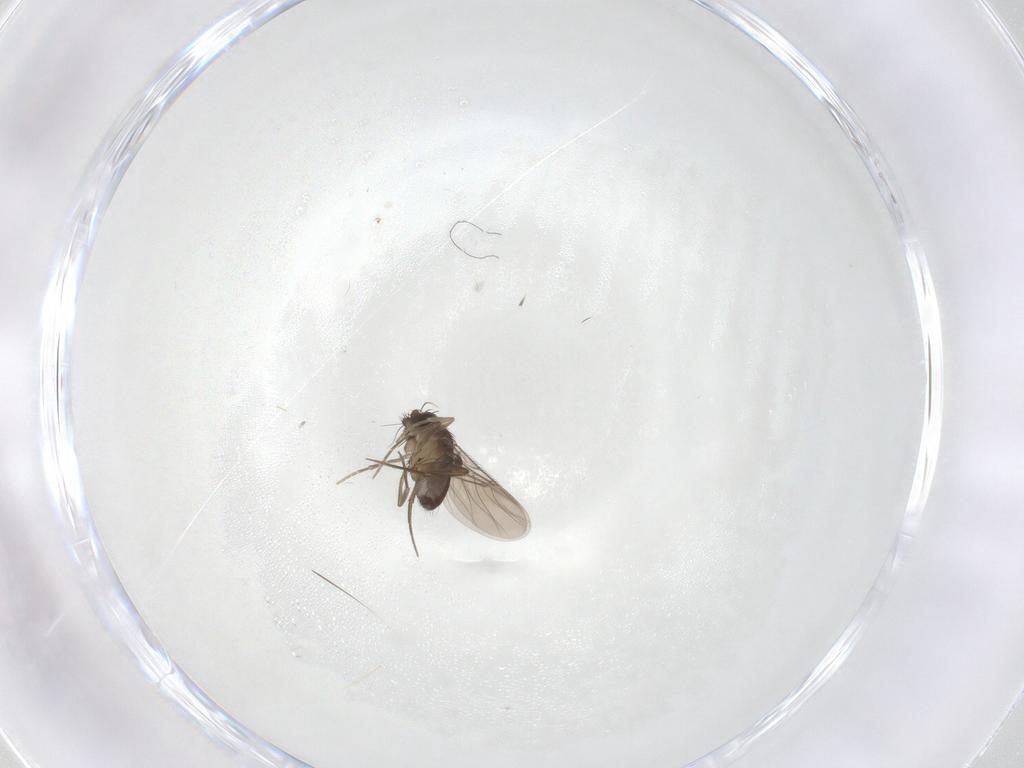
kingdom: Animalia
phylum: Arthropoda
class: Insecta
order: Diptera
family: Phoridae
